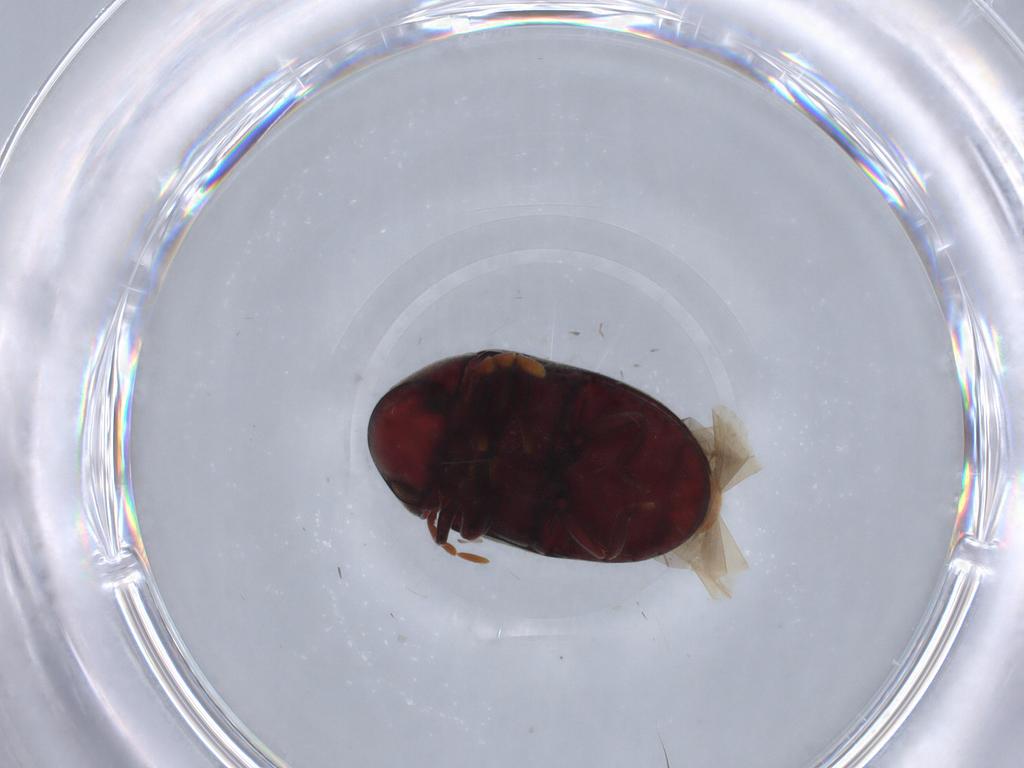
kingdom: Animalia
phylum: Arthropoda
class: Insecta
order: Coleoptera
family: Ptinidae
